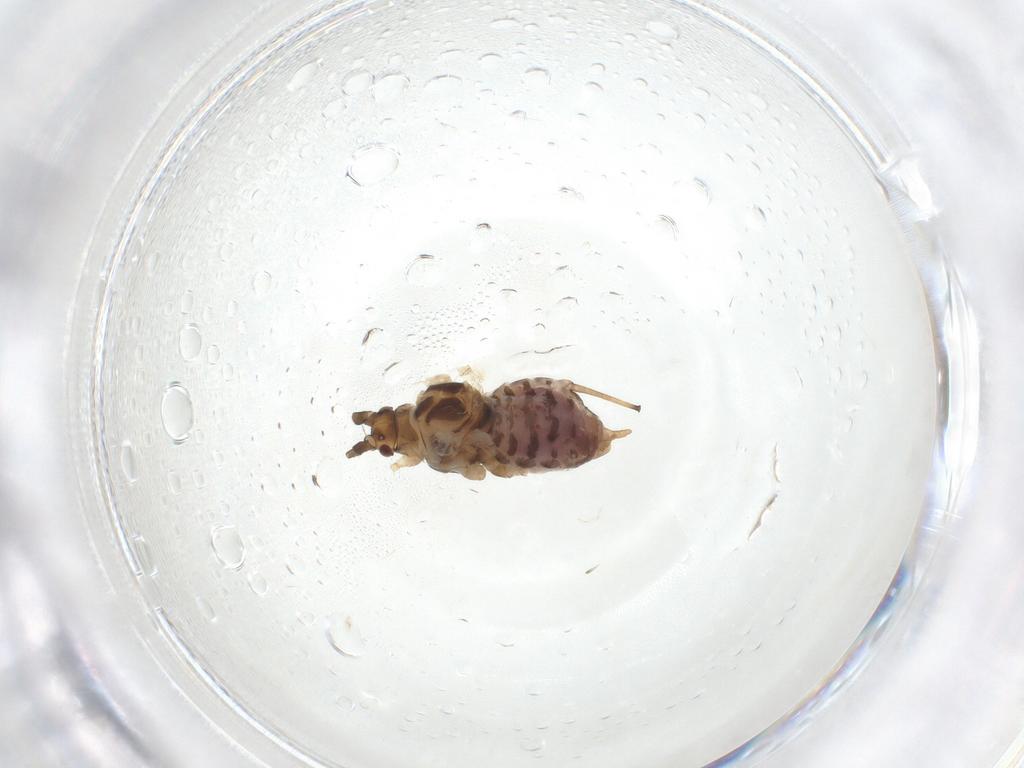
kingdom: Animalia
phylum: Arthropoda
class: Insecta
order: Hemiptera
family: Aphididae
